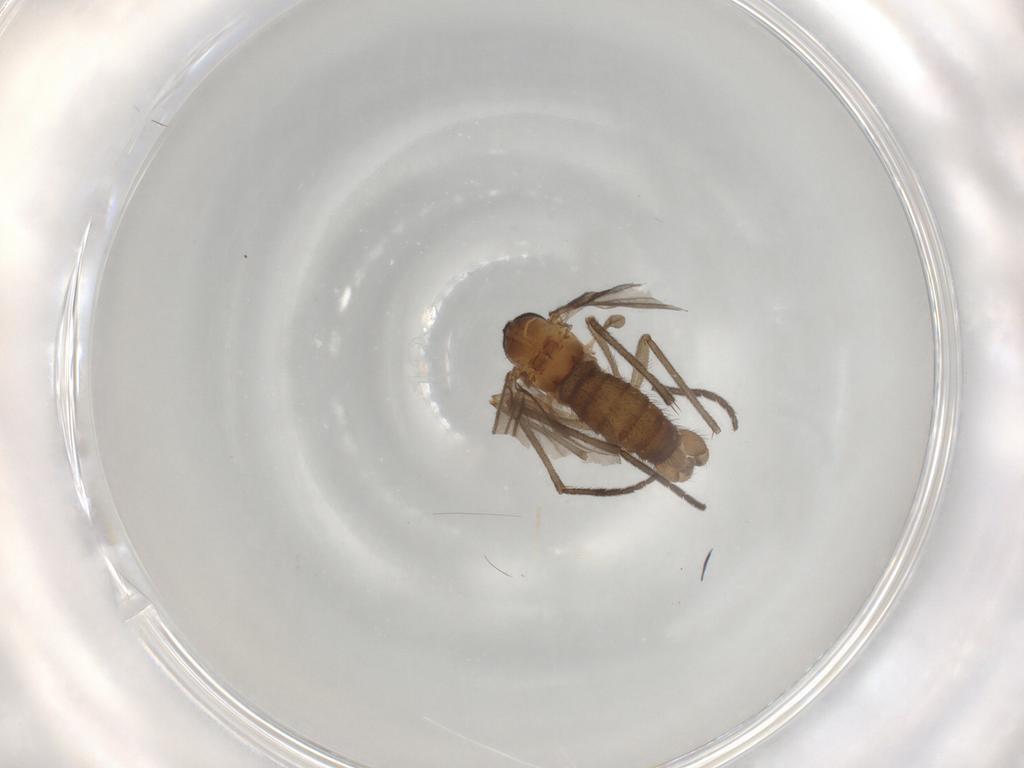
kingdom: Animalia
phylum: Arthropoda
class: Insecta
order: Diptera
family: Sciaridae
